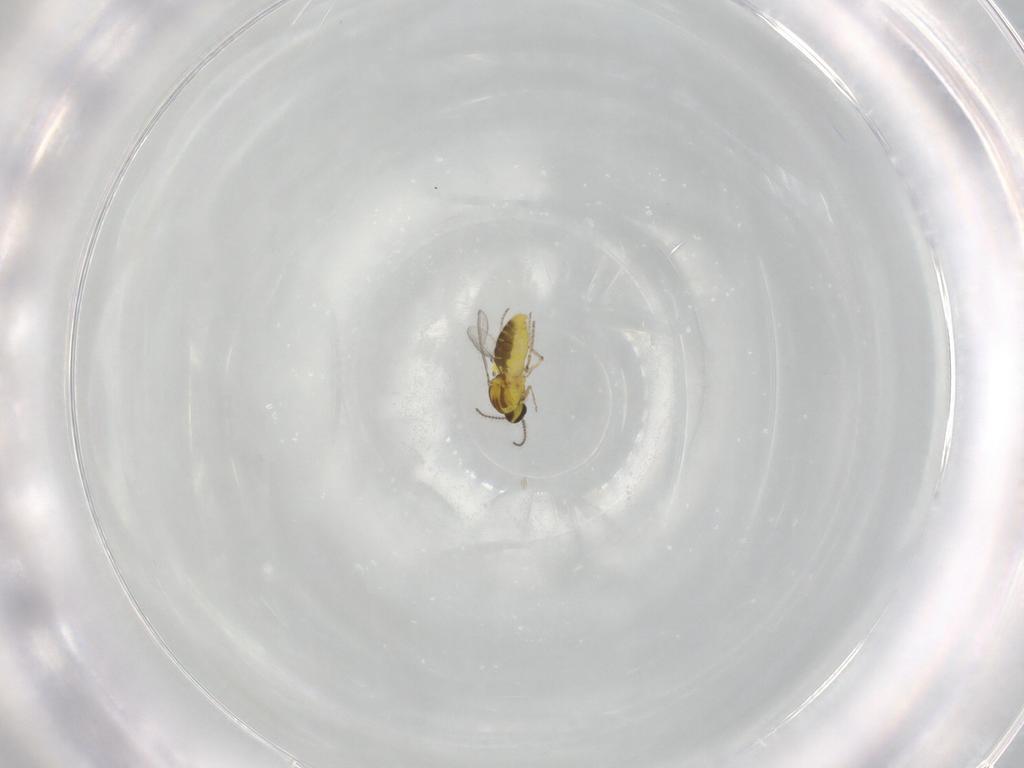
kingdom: Animalia
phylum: Arthropoda
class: Insecta
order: Diptera
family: Ceratopogonidae
